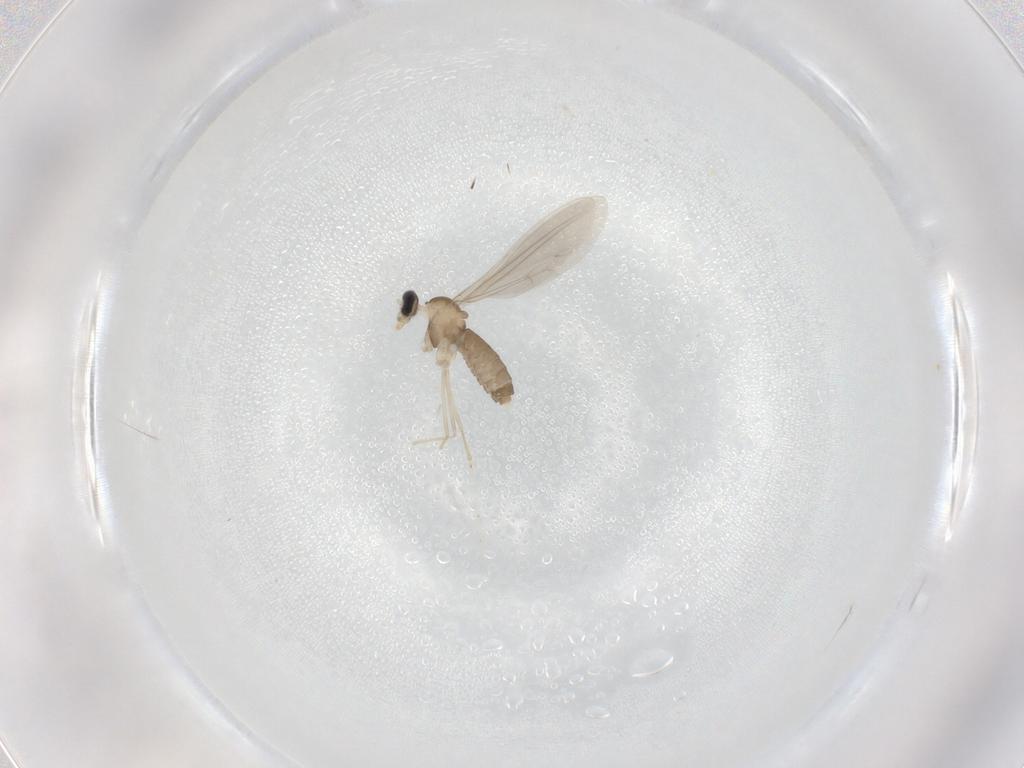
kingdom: Animalia
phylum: Arthropoda
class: Insecta
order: Diptera
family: Cecidomyiidae
